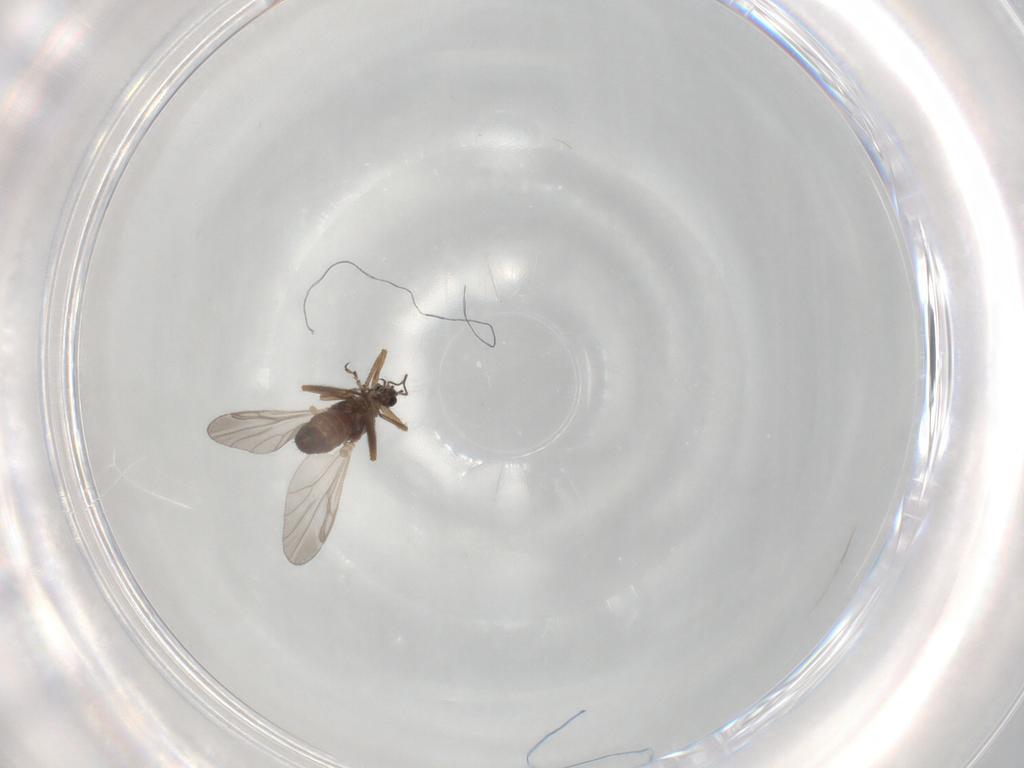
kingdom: Animalia
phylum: Arthropoda
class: Insecta
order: Diptera
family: Ceratopogonidae
